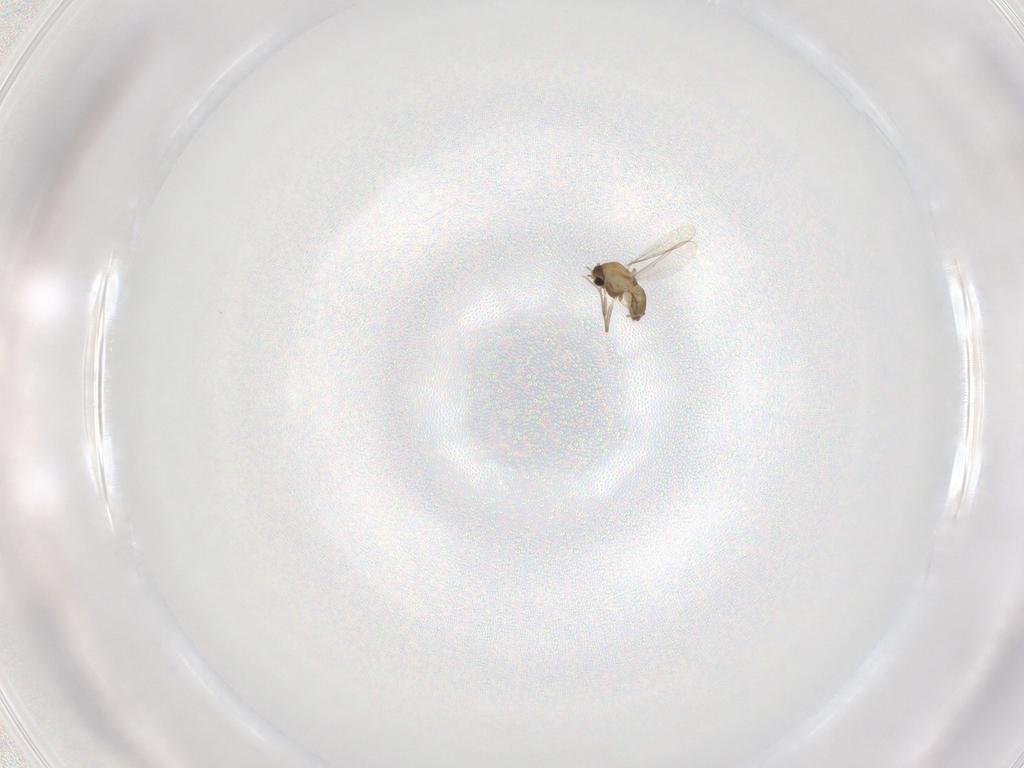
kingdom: Animalia
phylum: Arthropoda
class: Insecta
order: Diptera
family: Chironomidae
